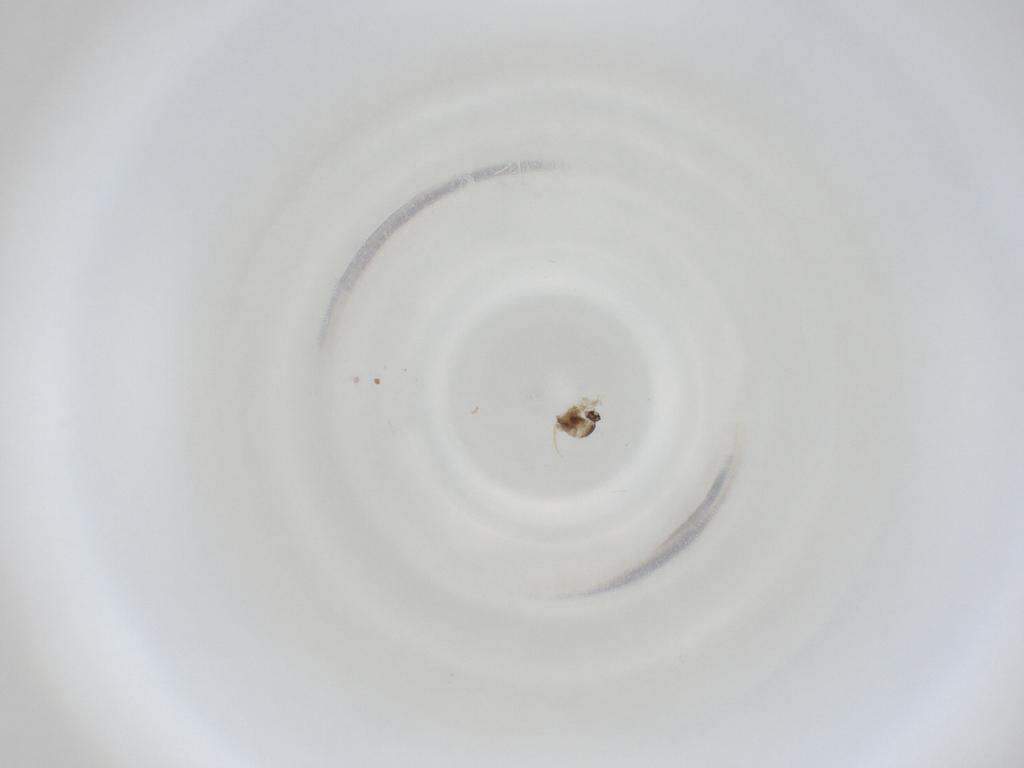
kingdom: Animalia
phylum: Arthropoda
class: Insecta
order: Diptera
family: Cecidomyiidae
